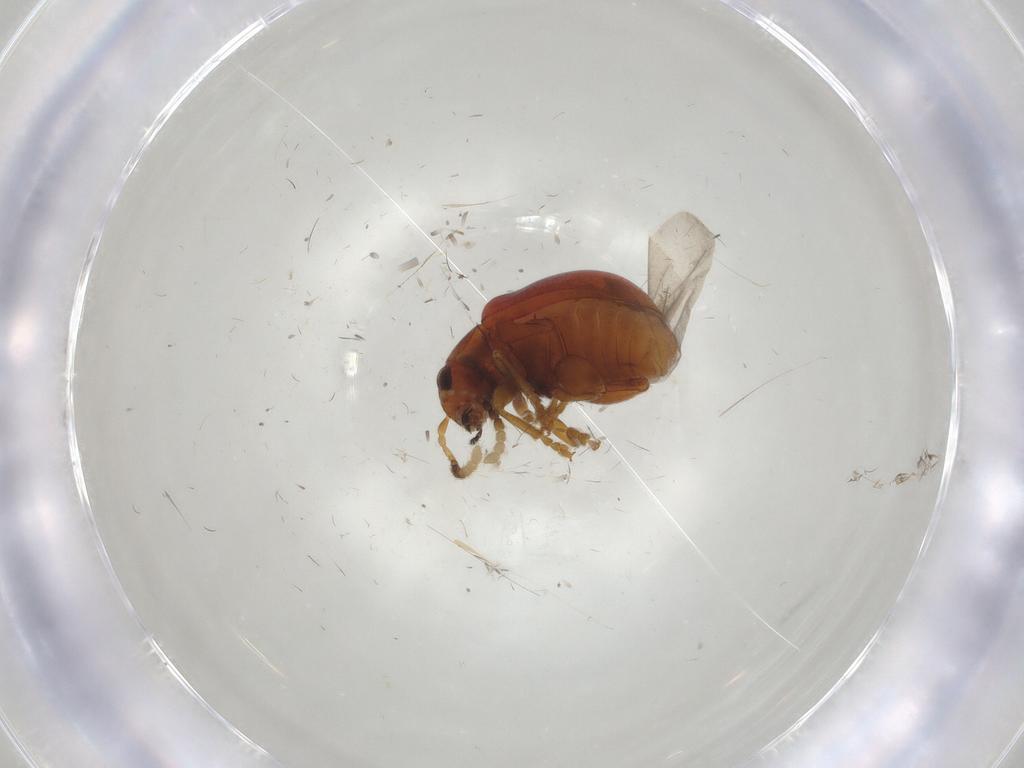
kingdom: Animalia
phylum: Arthropoda
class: Insecta
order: Coleoptera
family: Chrysomelidae
